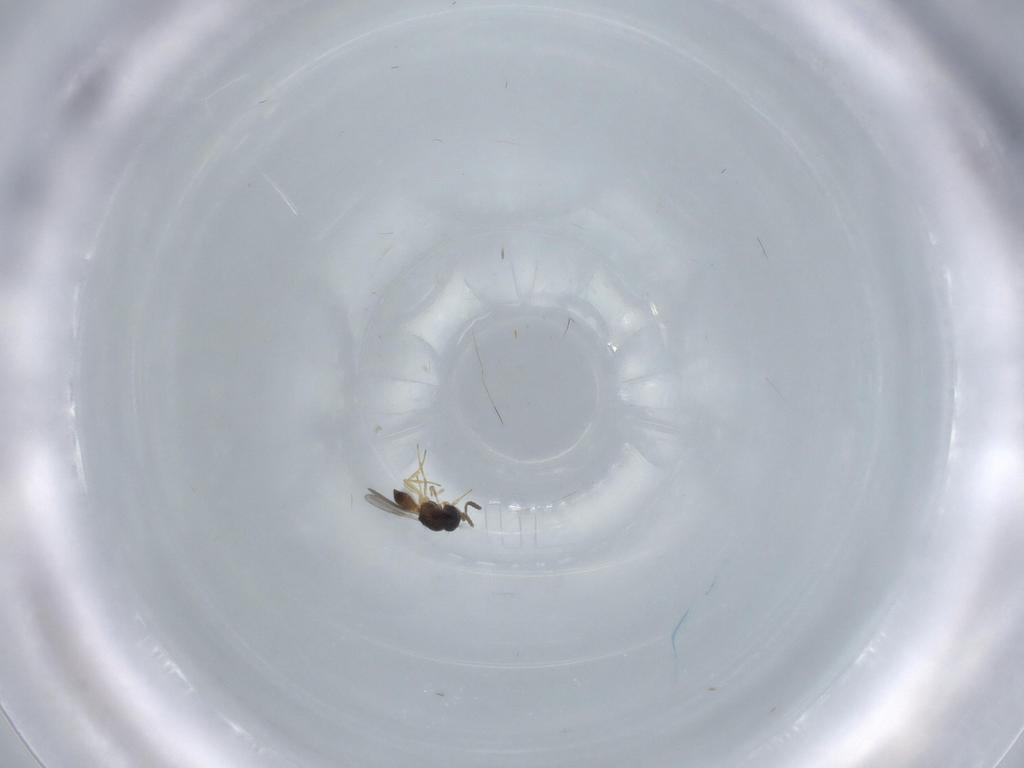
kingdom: Animalia
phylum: Arthropoda
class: Insecta
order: Hymenoptera
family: Scelionidae
